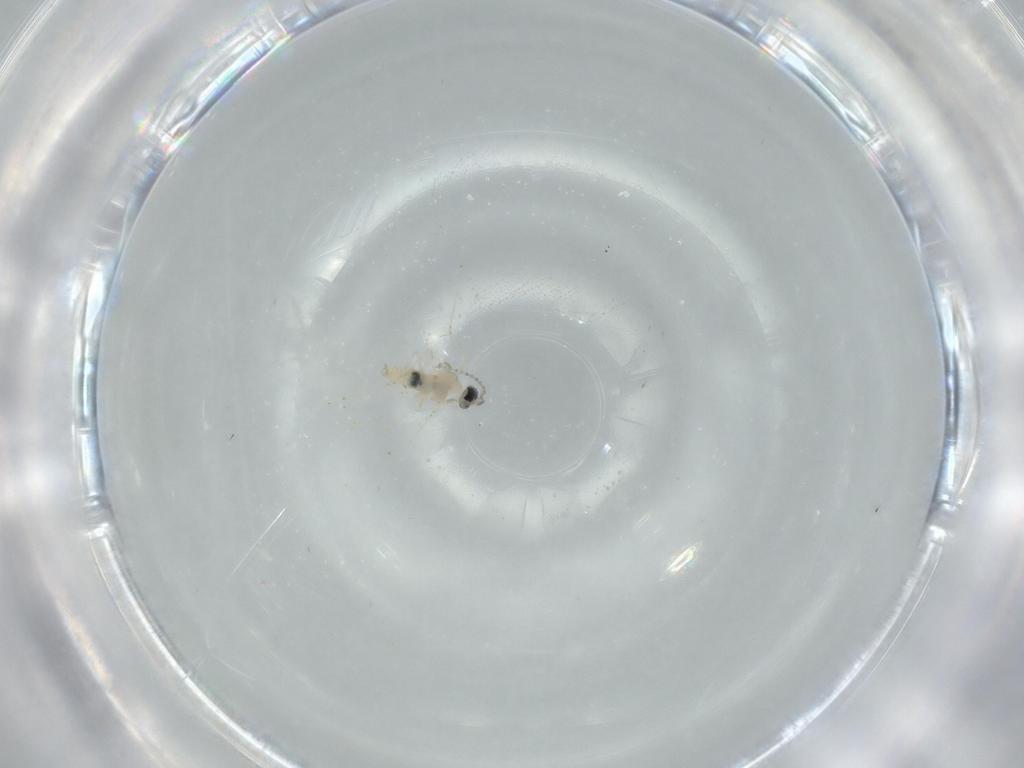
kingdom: Animalia
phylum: Arthropoda
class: Insecta
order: Diptera
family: Cecidomyiidae
